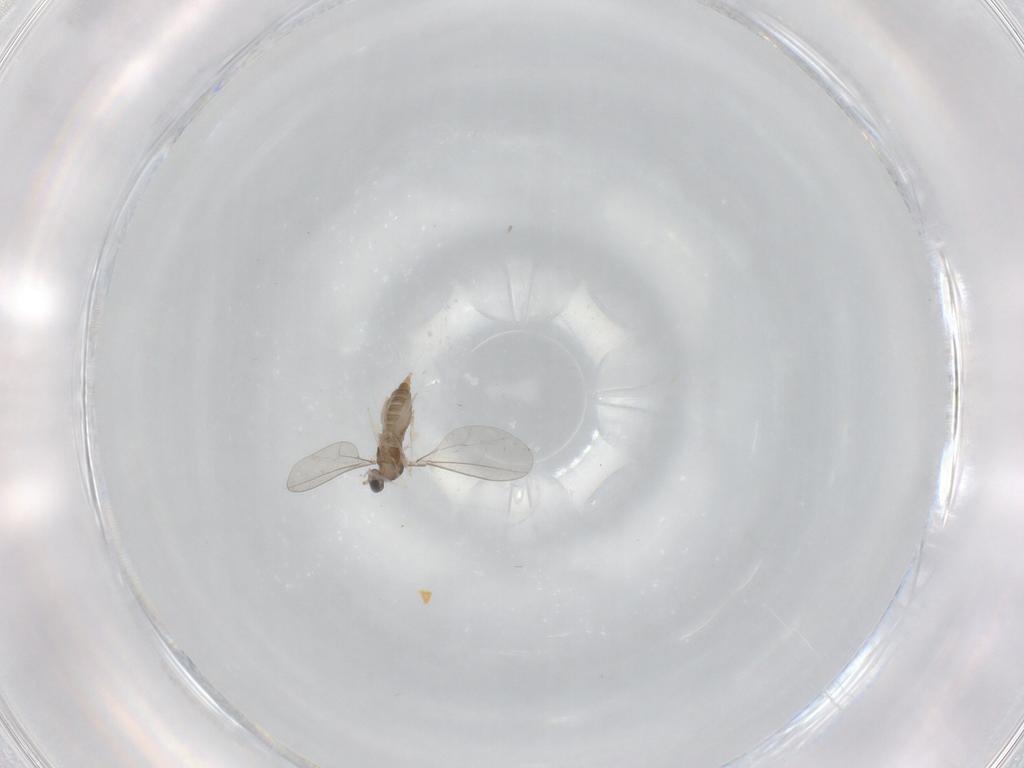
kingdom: Animalia
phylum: Arthropoda
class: Insecta
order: Diptera
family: Cecidomyiidae
